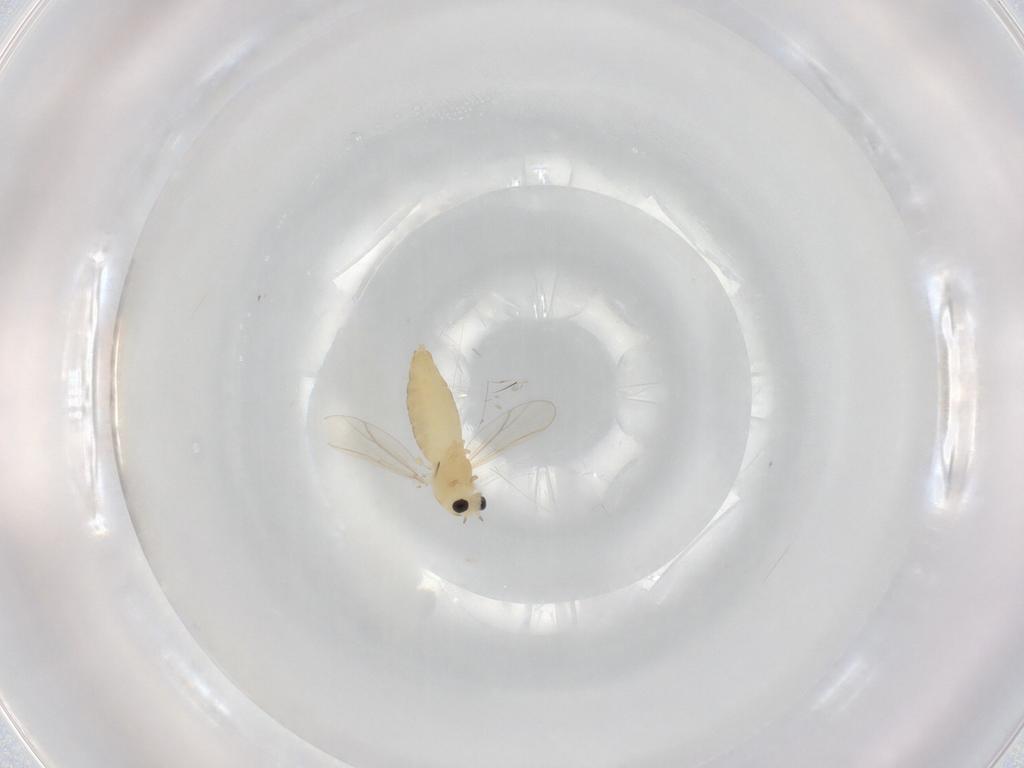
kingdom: Animalia
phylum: Arthropoda
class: Insecta
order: Diptera
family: Chironomidae
